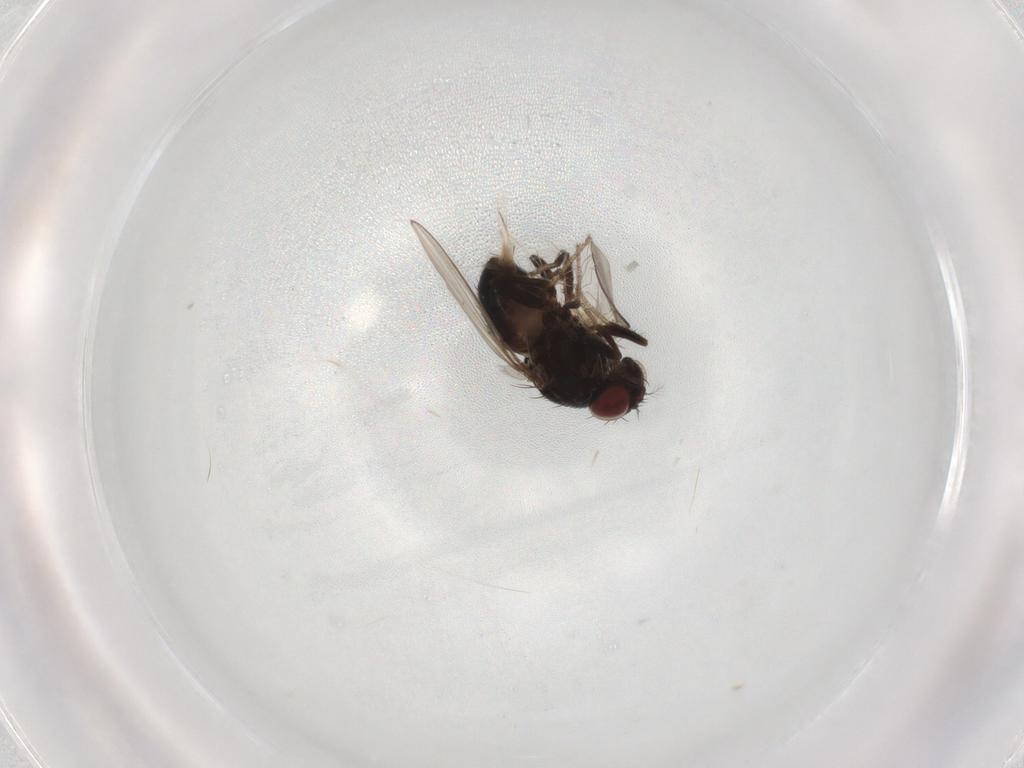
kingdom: Animalia
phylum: Arthropoda
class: Insecta
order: Diptera
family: Drosophilidae
